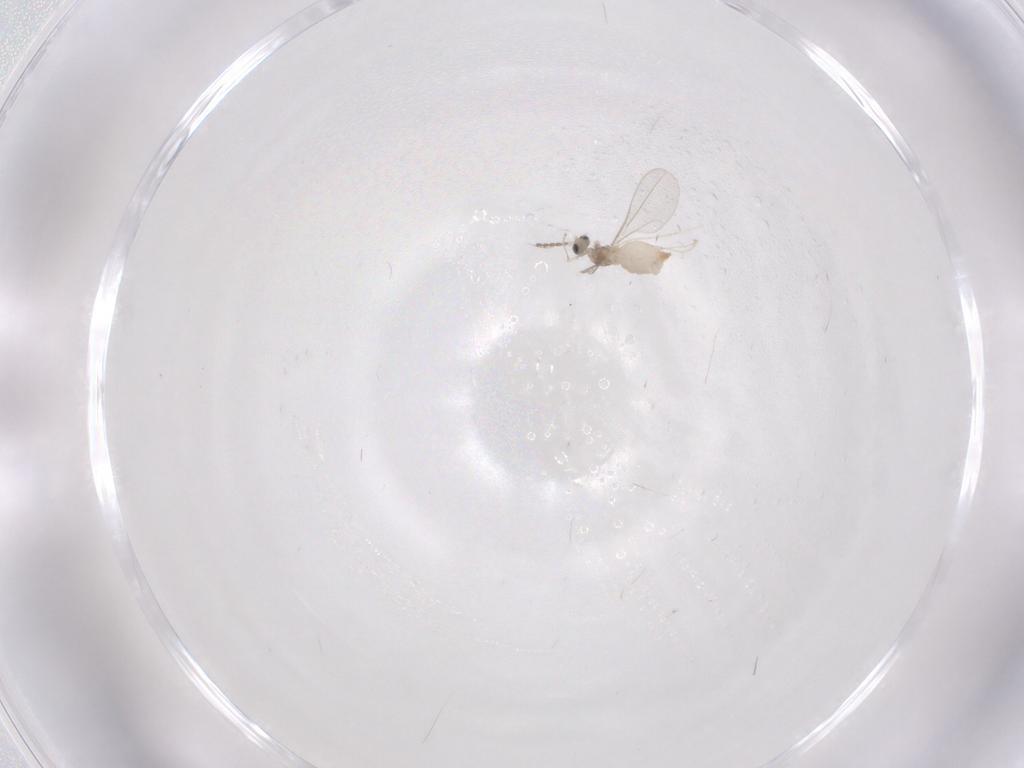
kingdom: Animalia
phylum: Arthropoda
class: Insecta
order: Diptera
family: Cecidomyiidae
